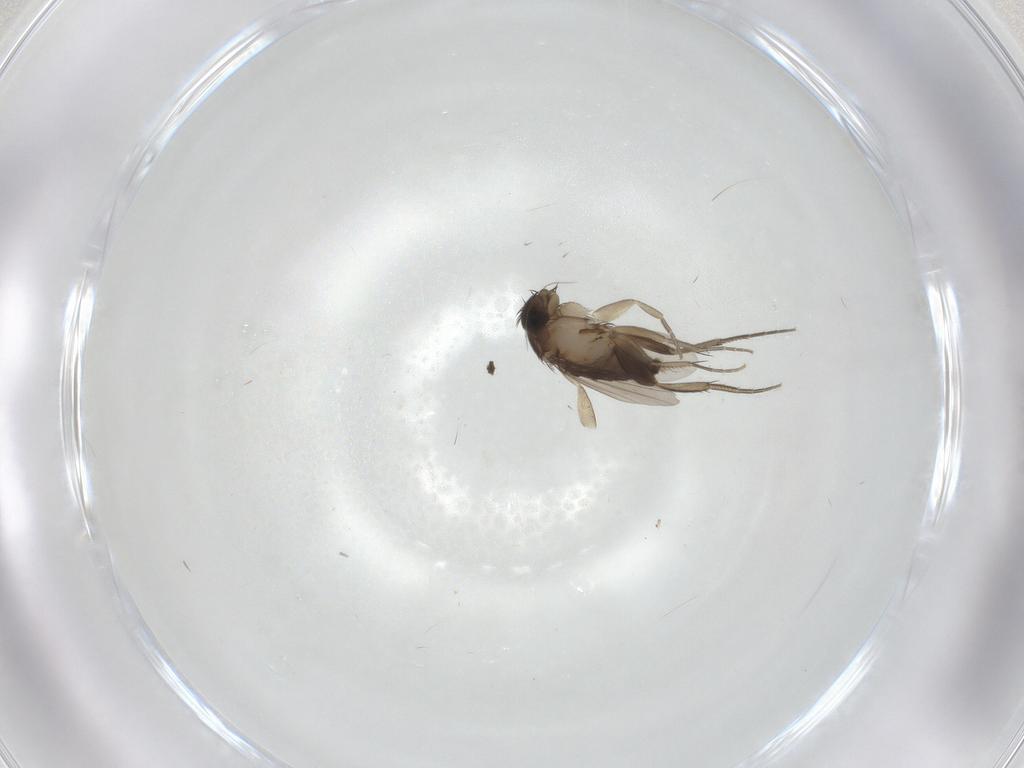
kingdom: Animalia
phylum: Arthropoda
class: Insecta
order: Diptera
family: Phoridae
